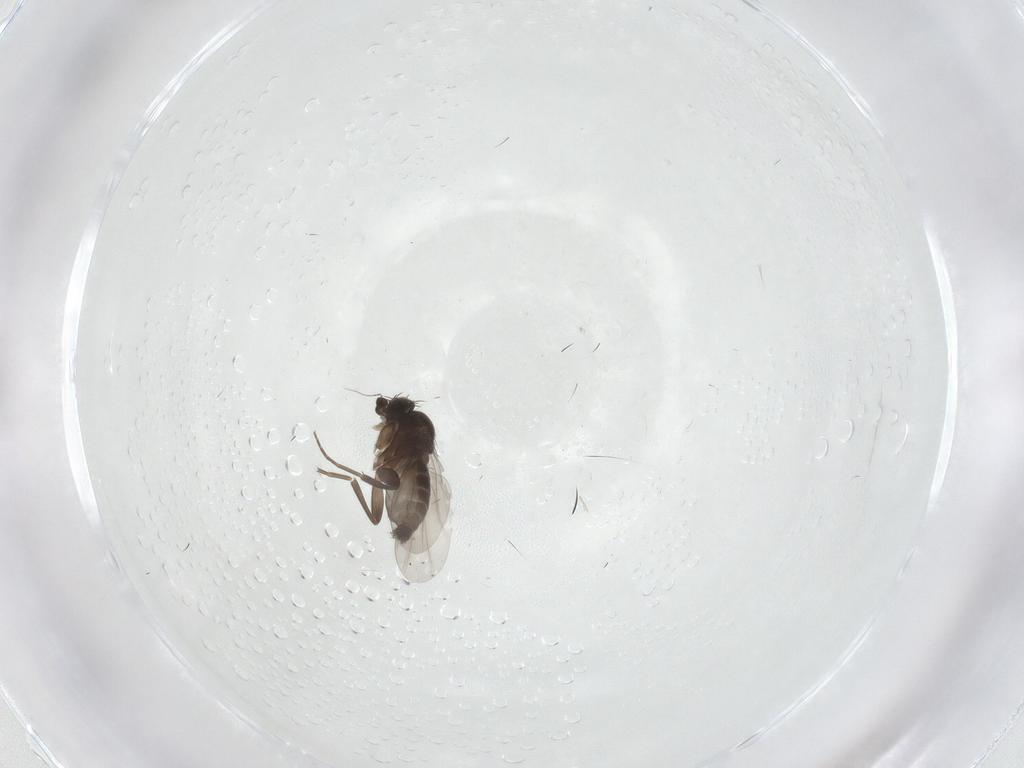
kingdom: Animalia
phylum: Arthropoda
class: Insecta
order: Diptera
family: Phoridae
